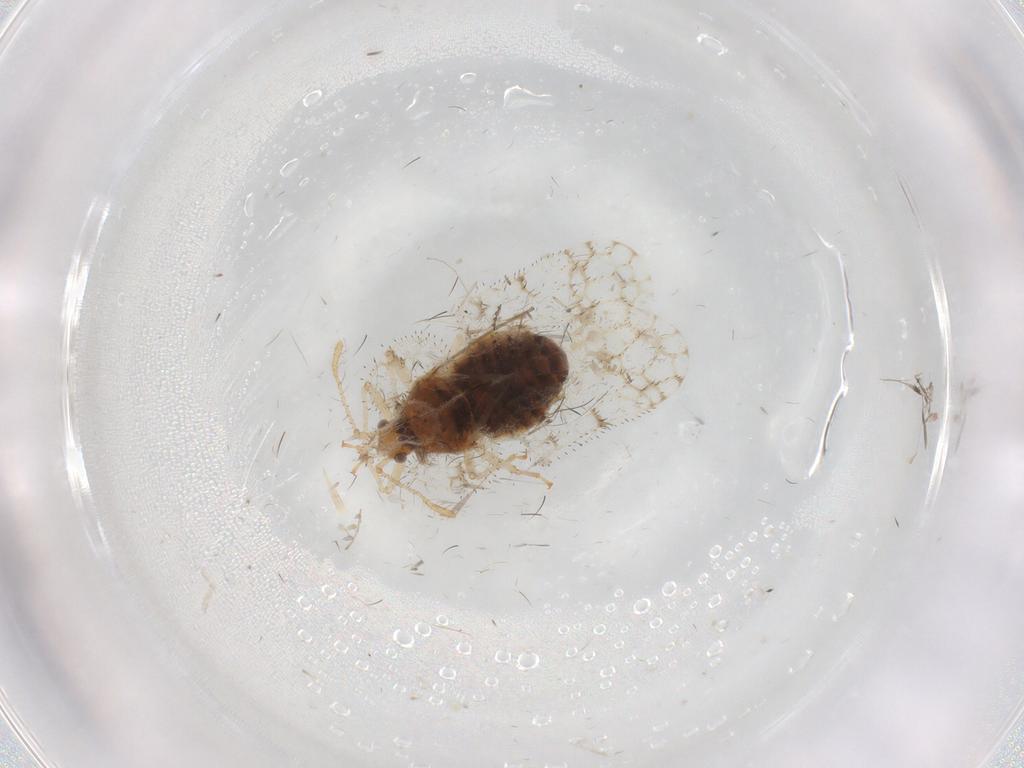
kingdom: Animalia
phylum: Arthropoda
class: Insecta
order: Hemiptera
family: Tingidae
